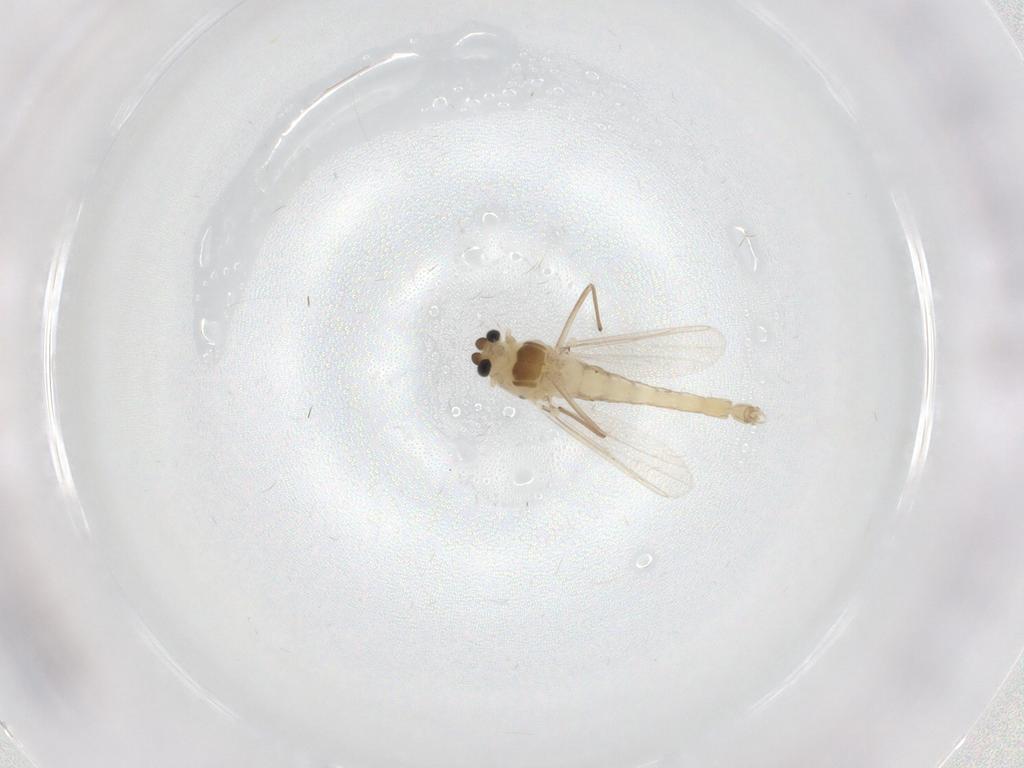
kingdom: Animalia
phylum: Arthropoda
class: Insecta
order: Diptera
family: Chironomidae
